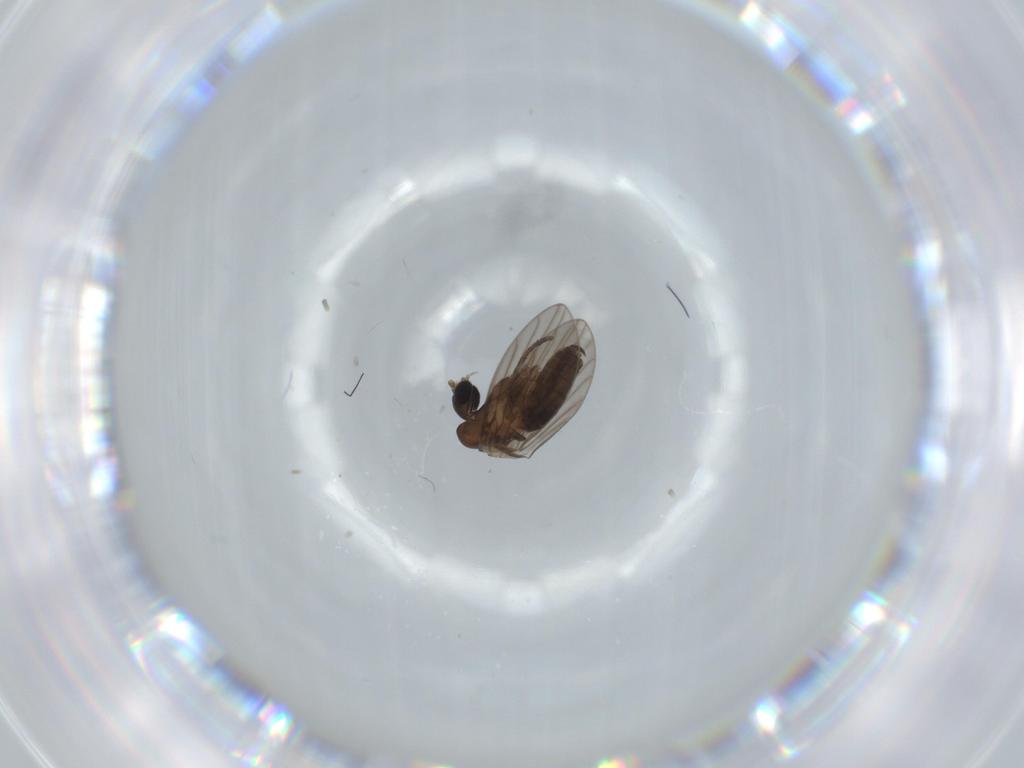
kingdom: Animalia
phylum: Arthropoda
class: Insecta
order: Diptera
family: Psychodidae
